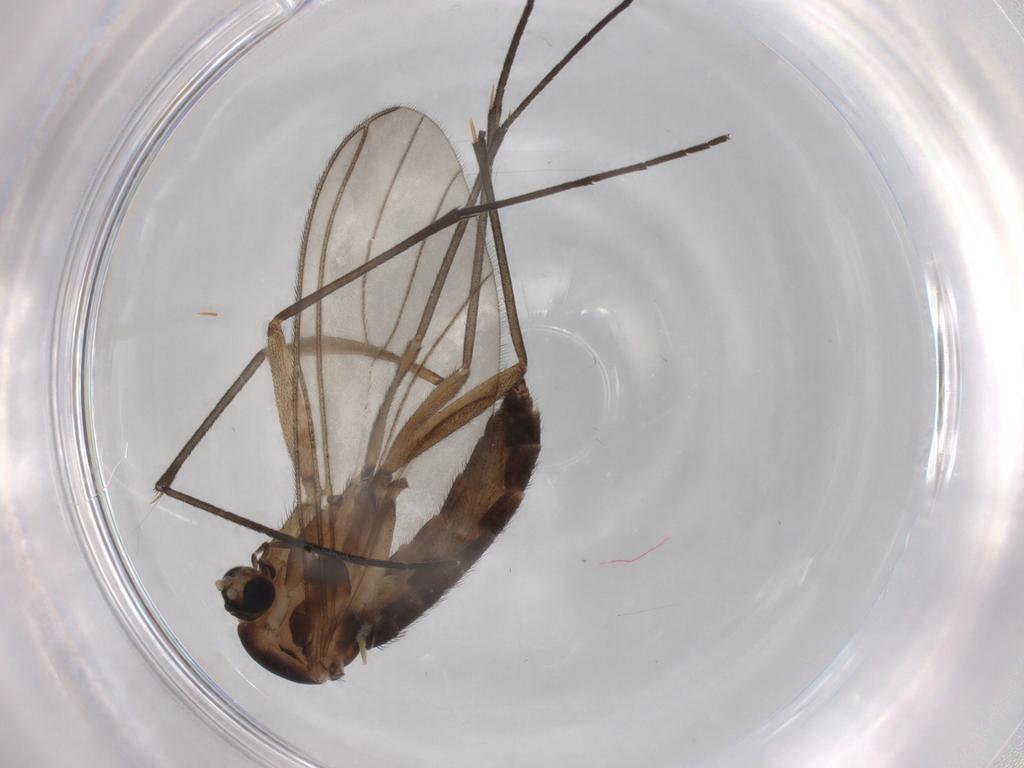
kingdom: Animalia
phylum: Arthropoda
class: Insecta
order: Diptera
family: Sciaridae
